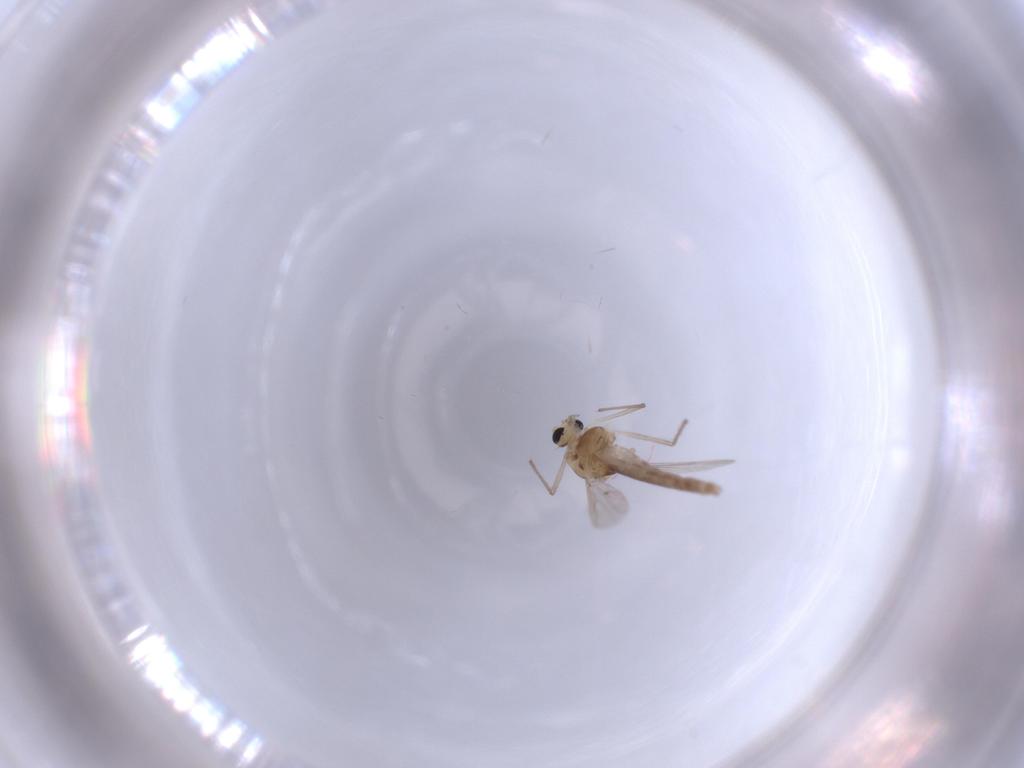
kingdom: Animalia
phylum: Arthropoda
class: Insecta
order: Diptera
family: Chironomidae
